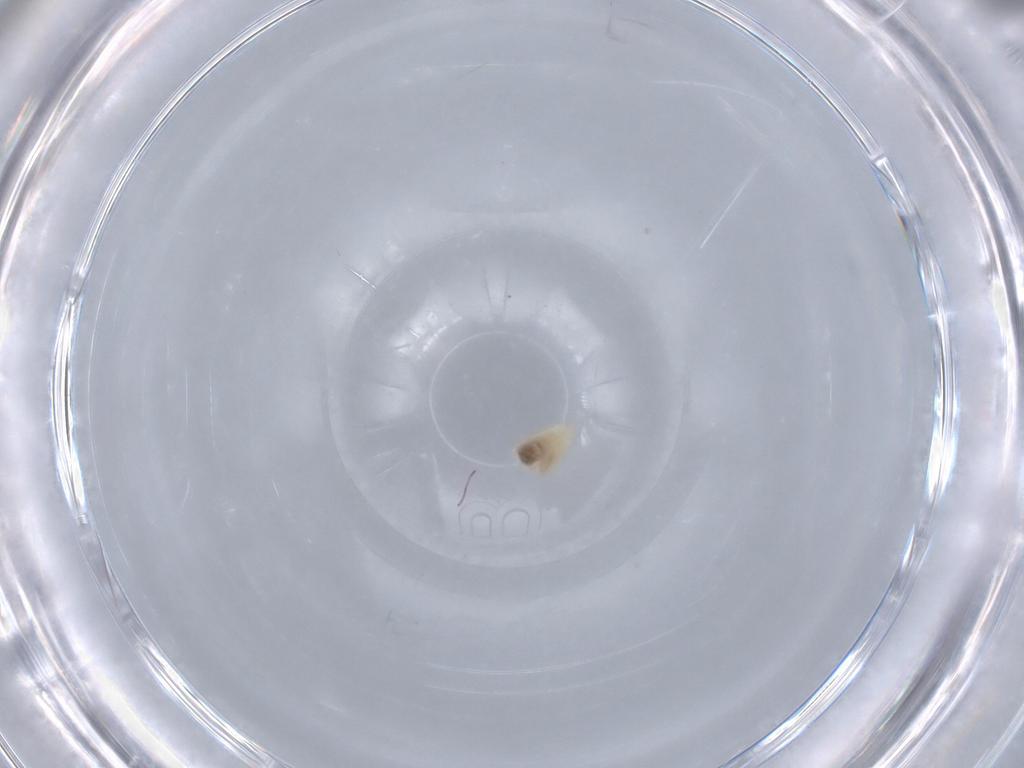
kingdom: Animalia
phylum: Arthropoda
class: Insecta
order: Diptera
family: Cecidomyiidae
